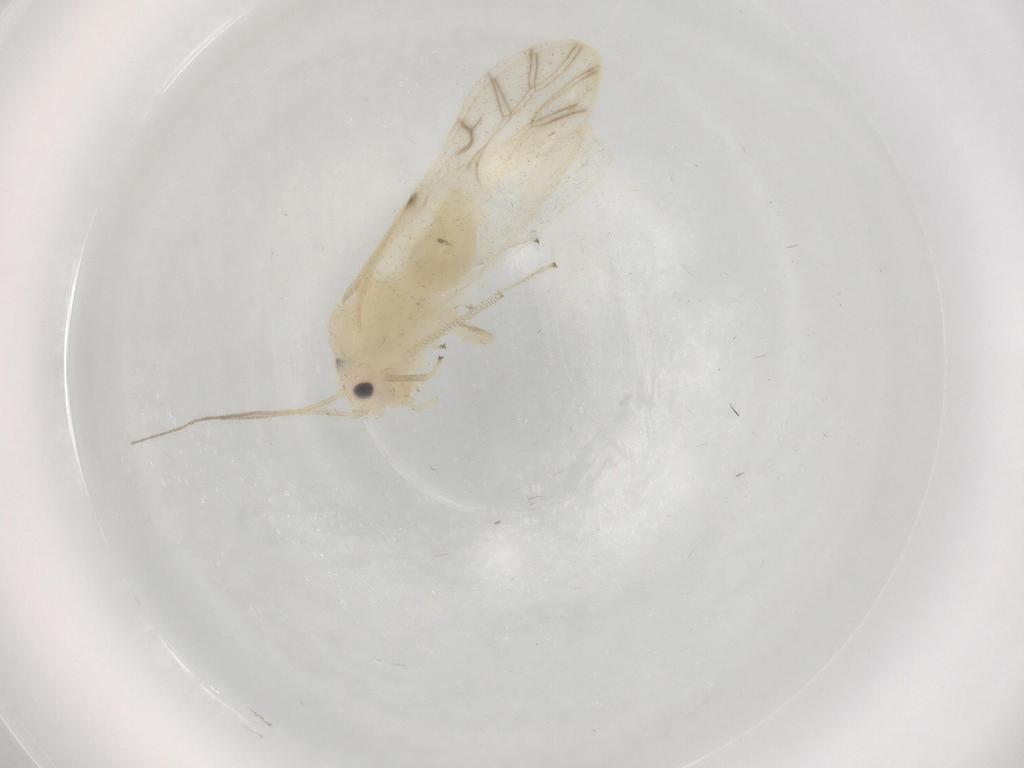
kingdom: Animalia
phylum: Arthropoda
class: Insecta
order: Psocodea
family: Caeciliusidae
